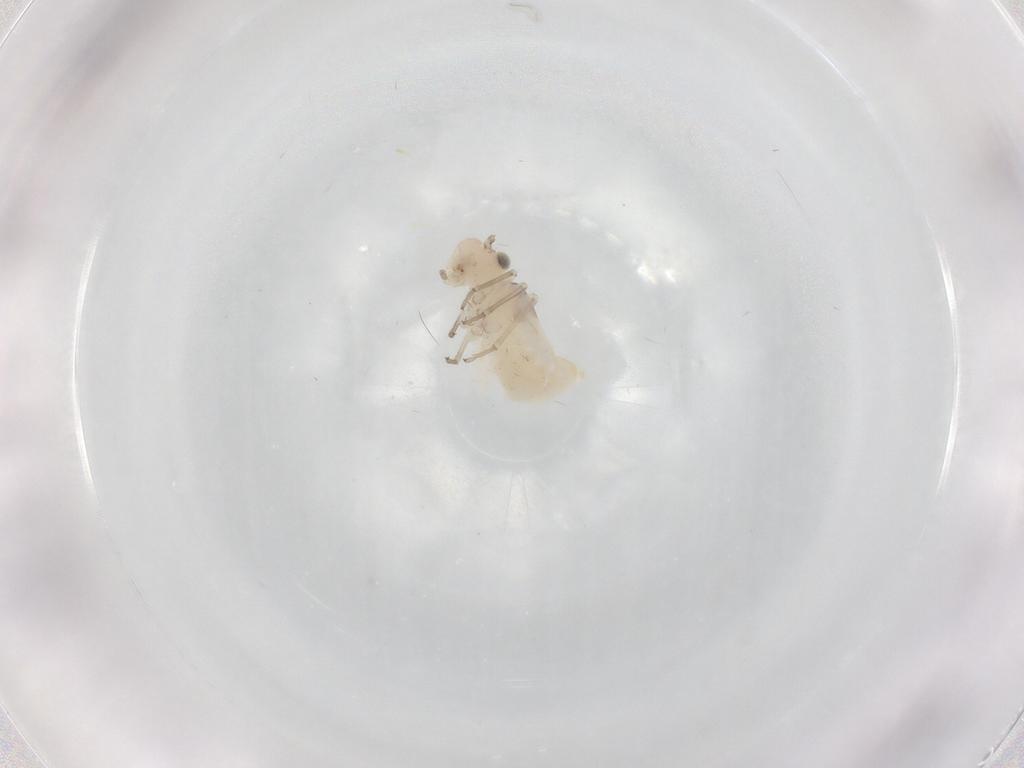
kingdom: Animalia
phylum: Arthropoda
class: Insecta
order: Psocodea
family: Caeciliusidae
